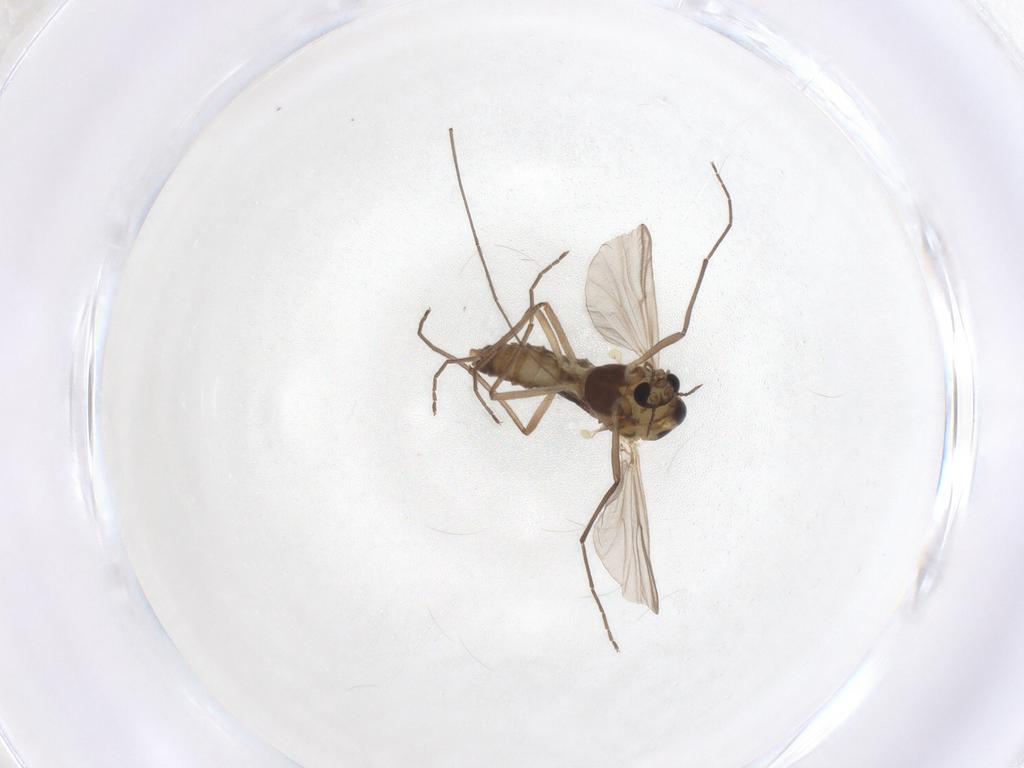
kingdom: Animalia
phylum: Arthropoda
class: Insecta
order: Diptera
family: Chironomidae
